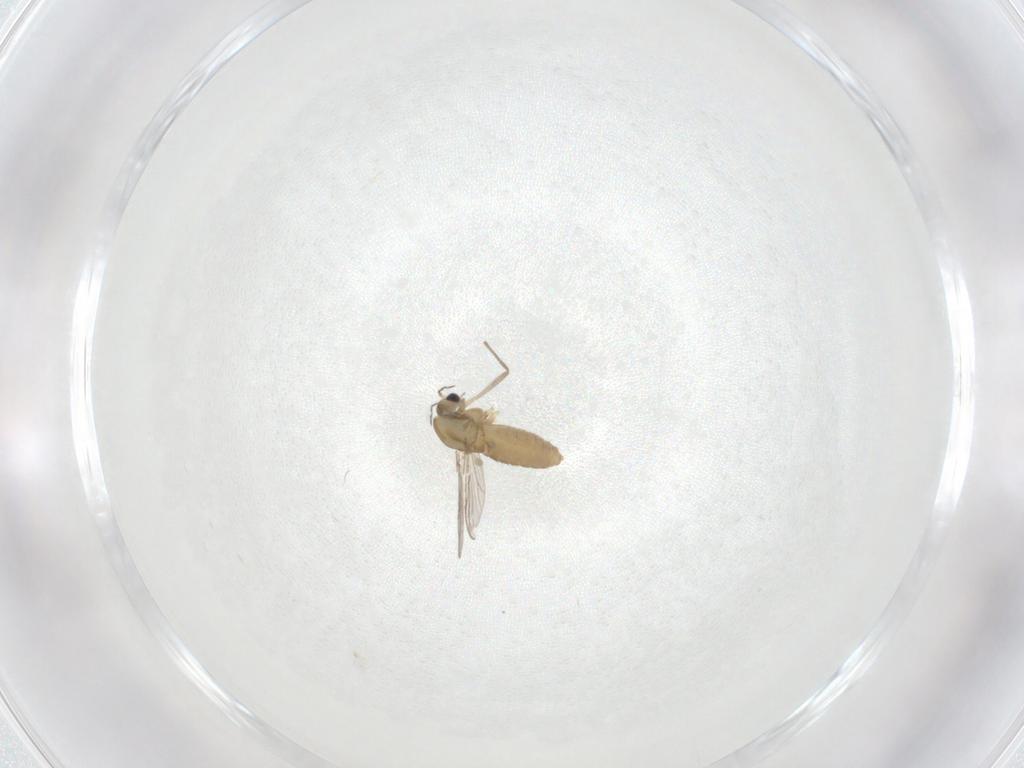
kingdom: Animalia
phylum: Arthropoda
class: Insecta
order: Diptera
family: Chironomidae
